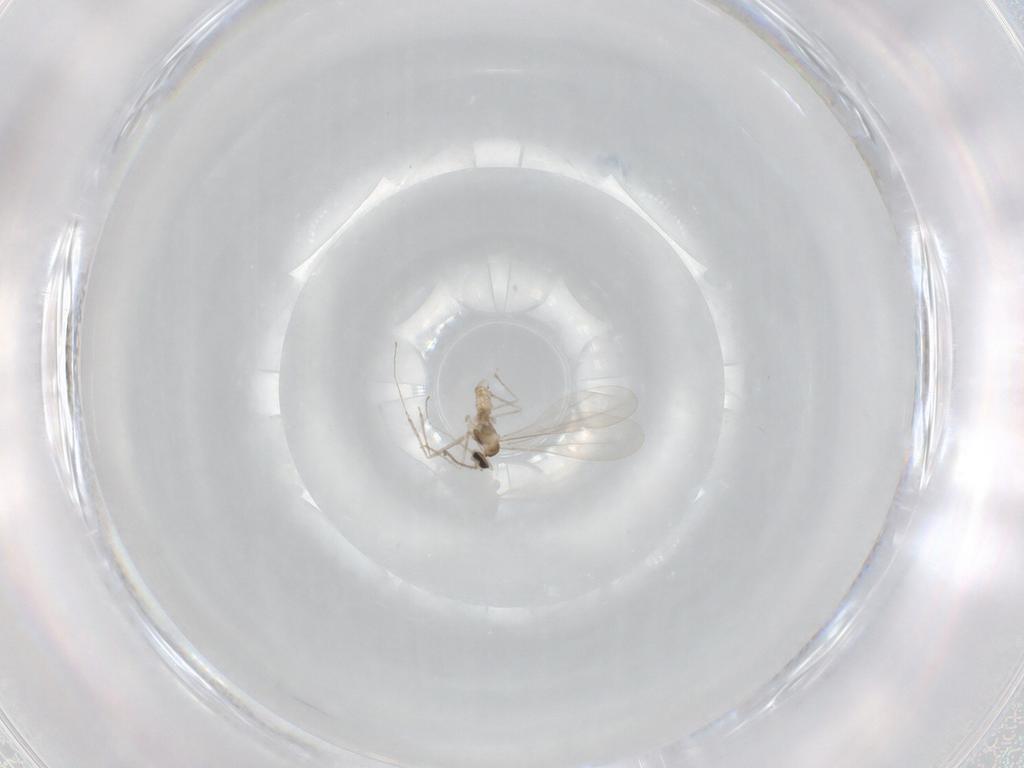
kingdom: Animalia
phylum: Arthropoda
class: Insecta
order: Diptera
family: Cecidomyiidae
